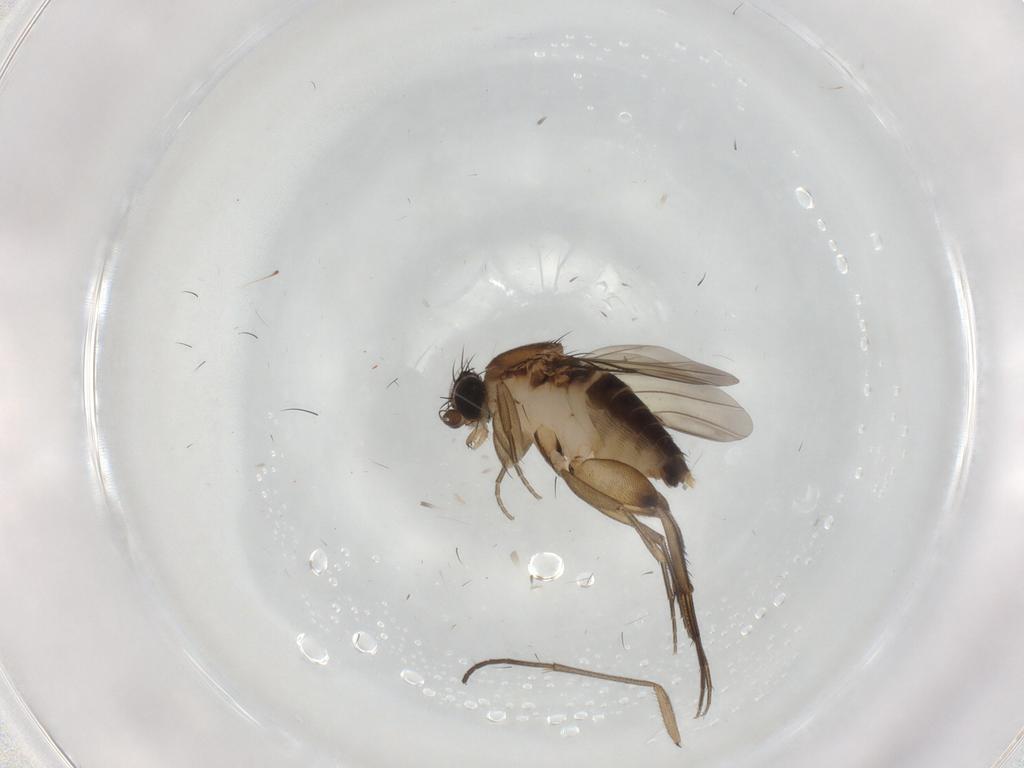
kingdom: Animalia
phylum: Arthropoda
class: Insecta
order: Diptera
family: Phoridae
